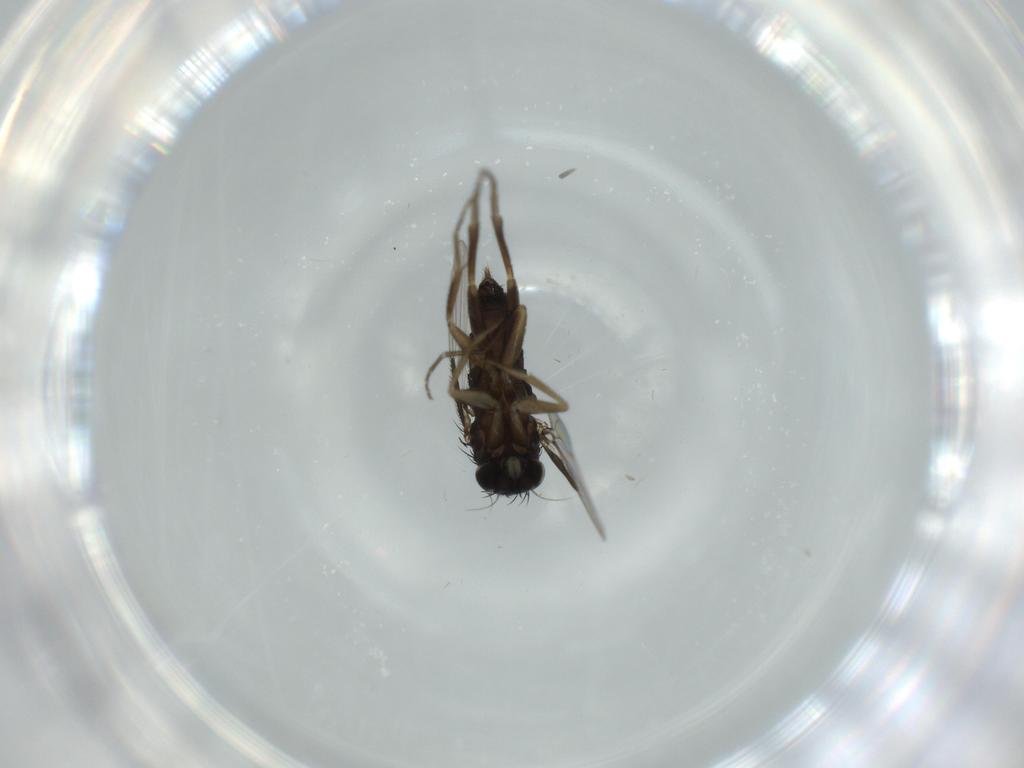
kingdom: Animalia
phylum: Arthropoda
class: Insecta
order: Diptera
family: Phoridae
